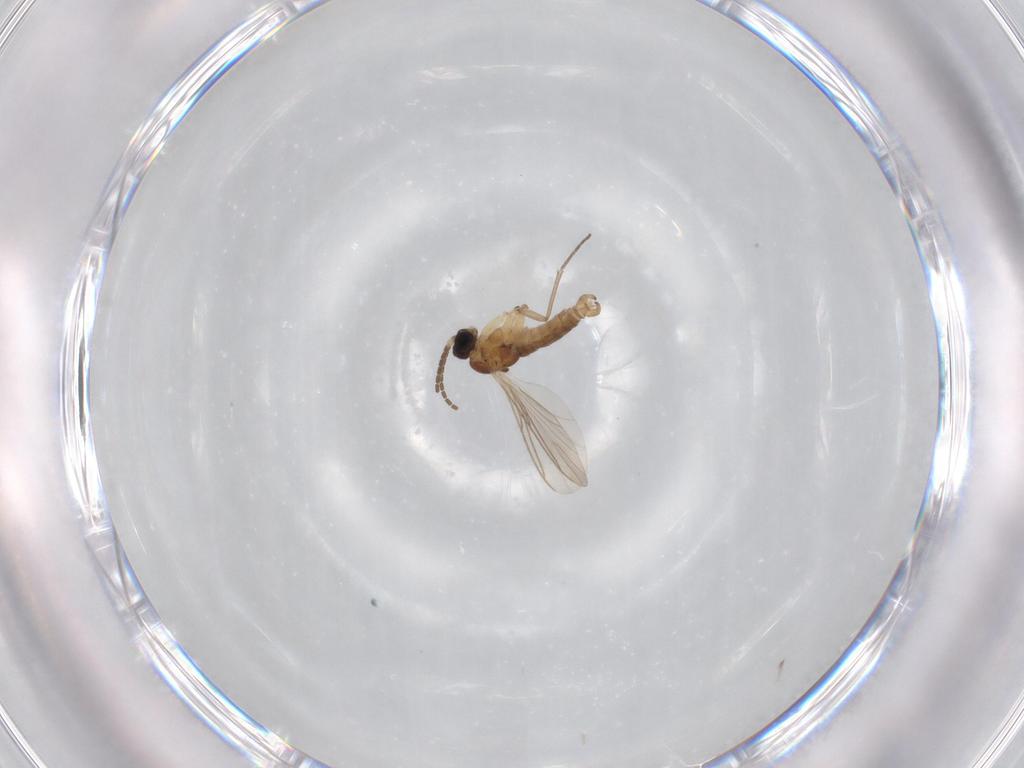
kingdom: Animalia
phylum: Arthropoda
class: Insecta
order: Diptera
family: Sciaridae
